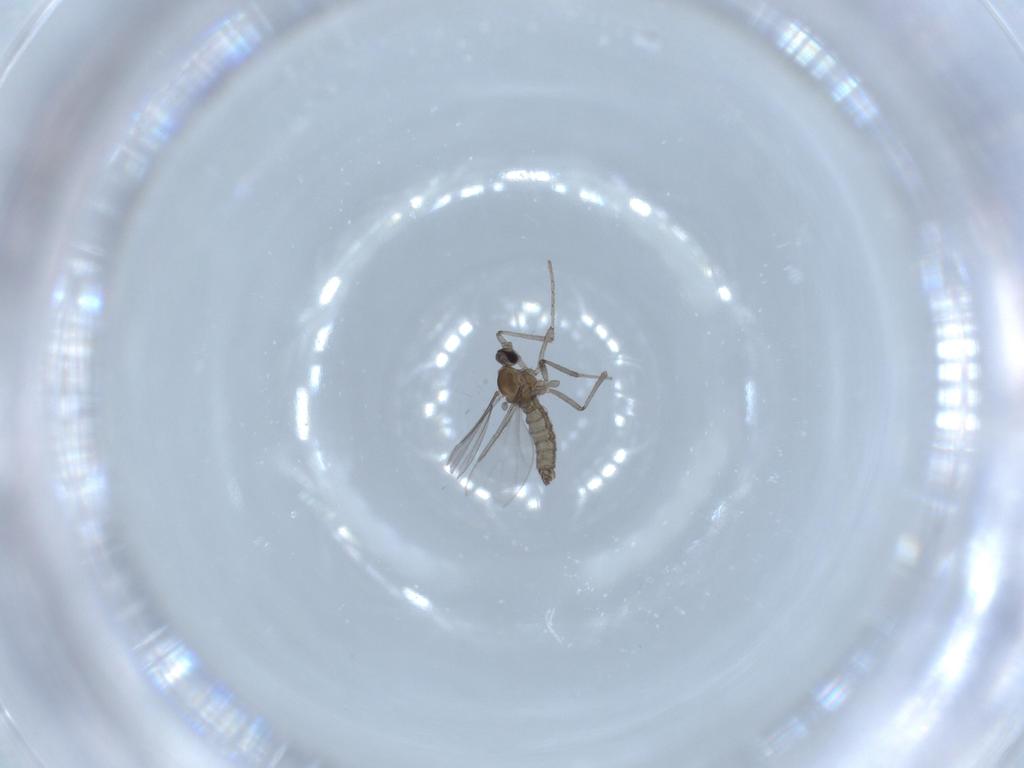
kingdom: Animalia
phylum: Arthropoda
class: Insecta
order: Diptera
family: Cecidomyiidae
